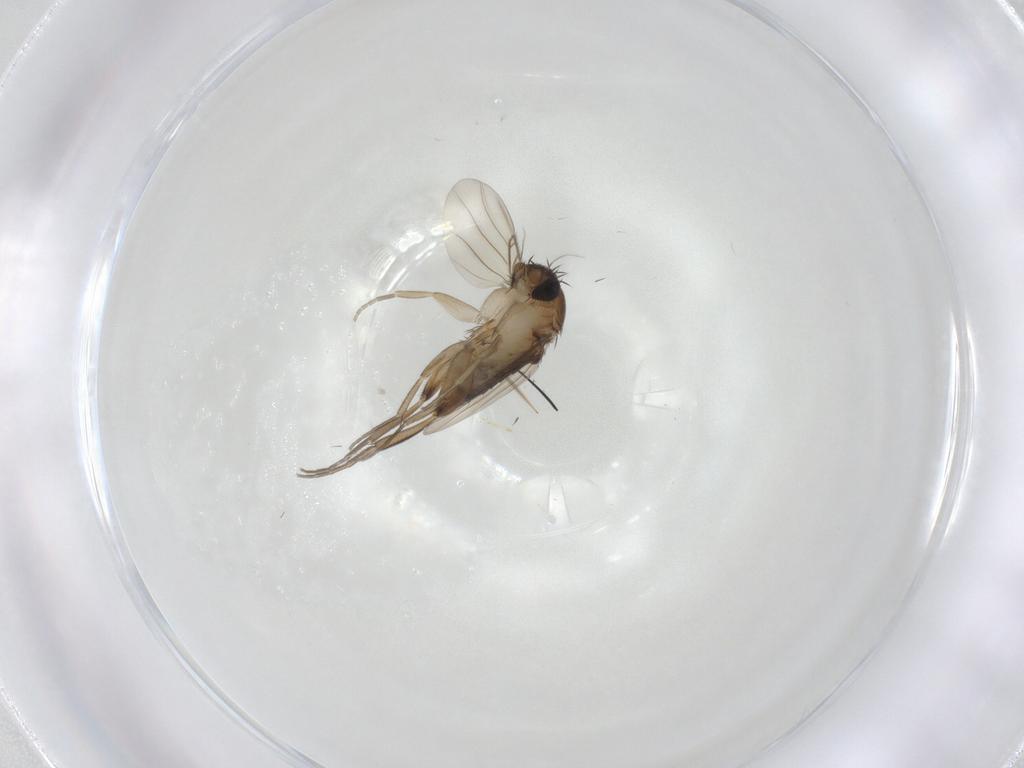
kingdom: Animalia
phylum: Arthropoda
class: Insecta
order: Diptera
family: Phoridae
